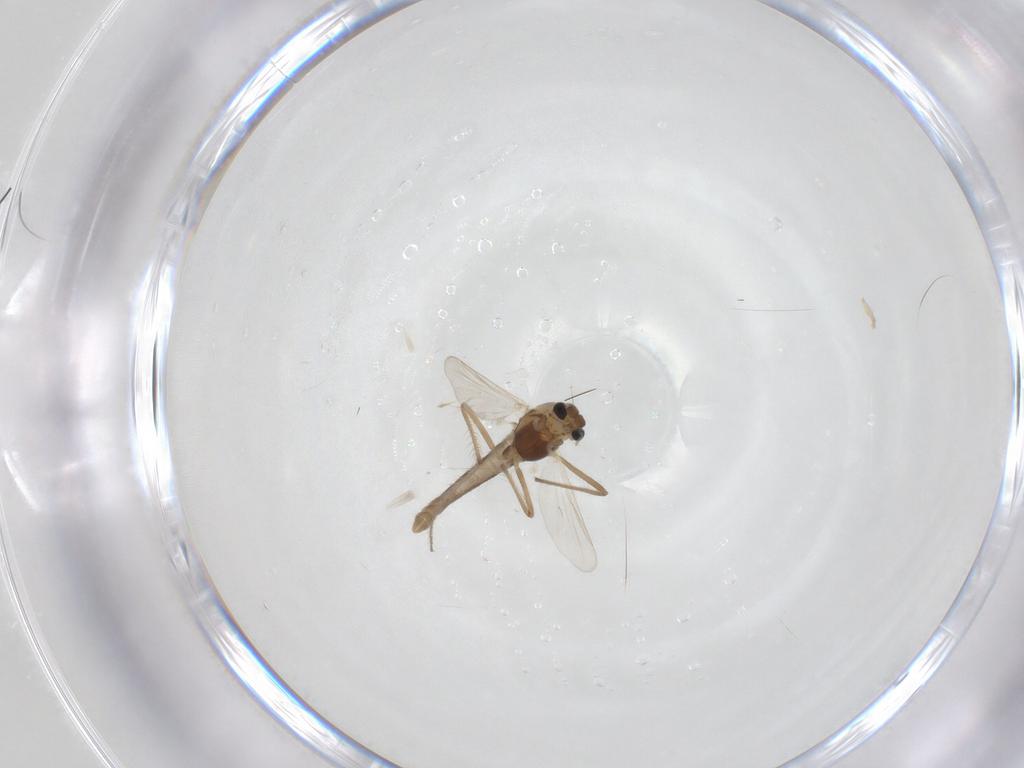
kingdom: Animalia
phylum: Arthropoda
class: Insecta
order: Diptera
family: Chironomidae
